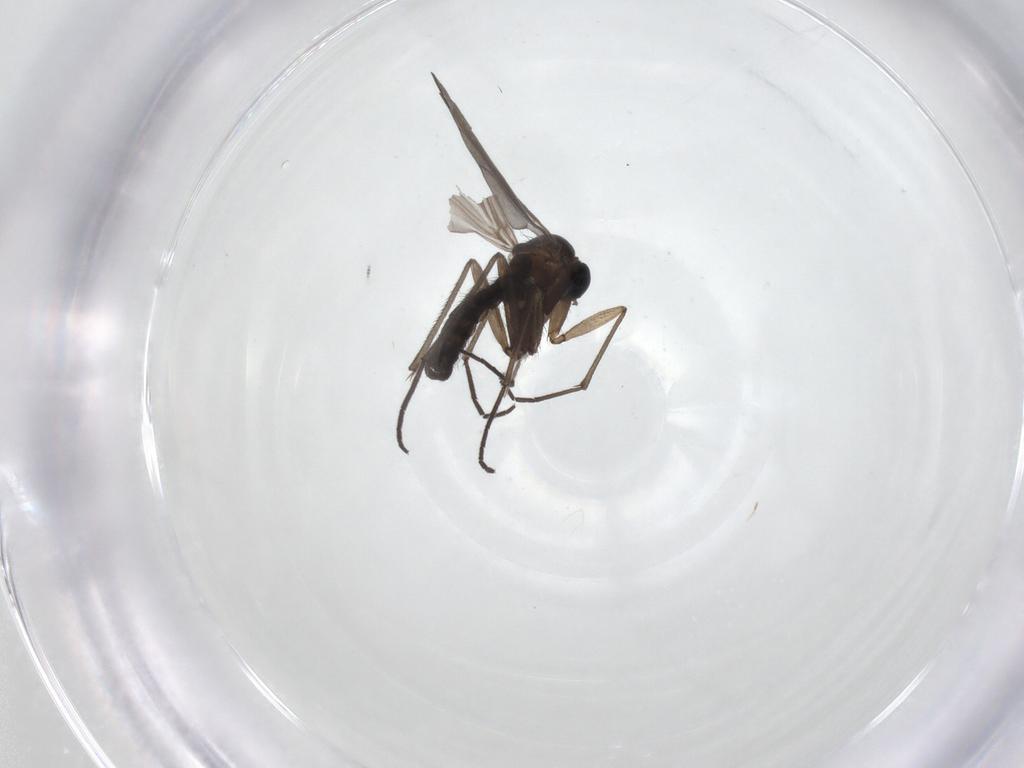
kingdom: Animalia
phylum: Arthropoda
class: Insecta
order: Diptera
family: Sciaridae
